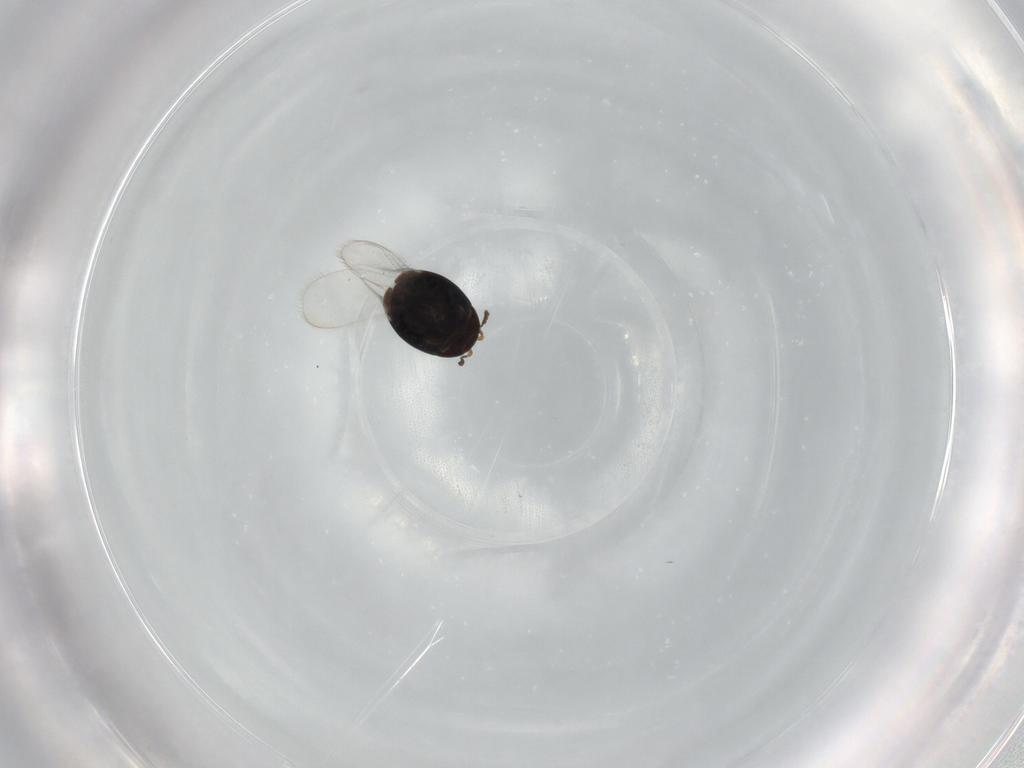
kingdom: Animalia
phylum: Arthropoda
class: Insecta
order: Coleoptera
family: Corylophidae
